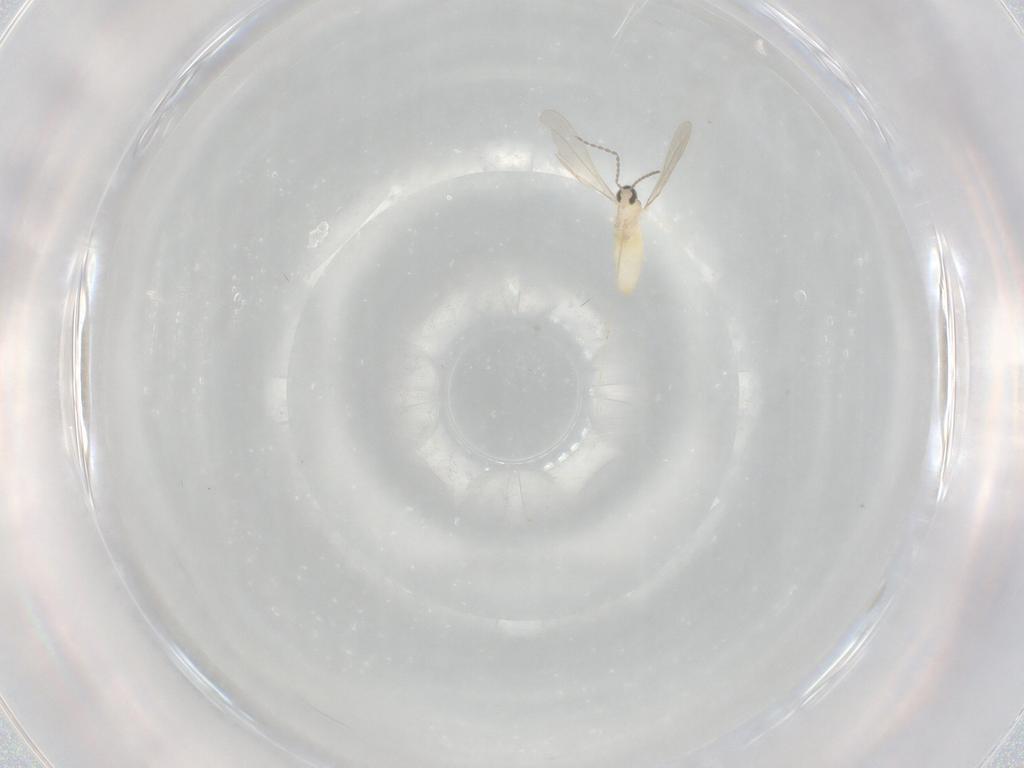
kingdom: Animalia
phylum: Arthropoda
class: Insecta
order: Diptera
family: Cecidomyiidae
